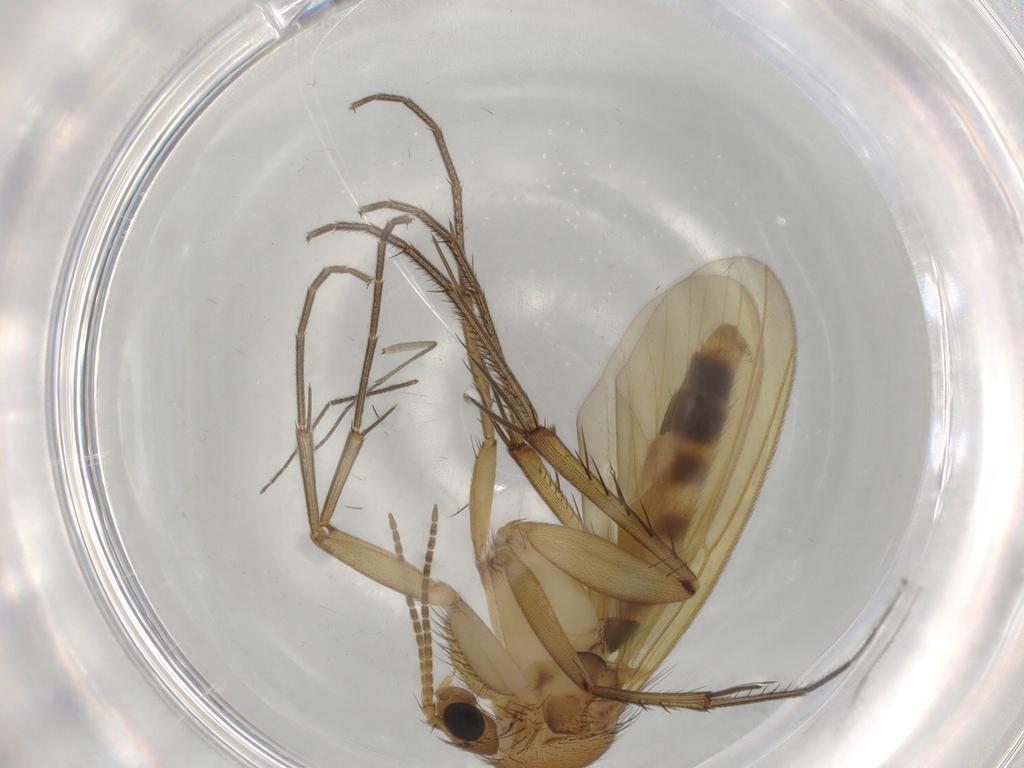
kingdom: Animalia
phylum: Arthropoda
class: Insecta
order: Diptera
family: Mycetophilidae
